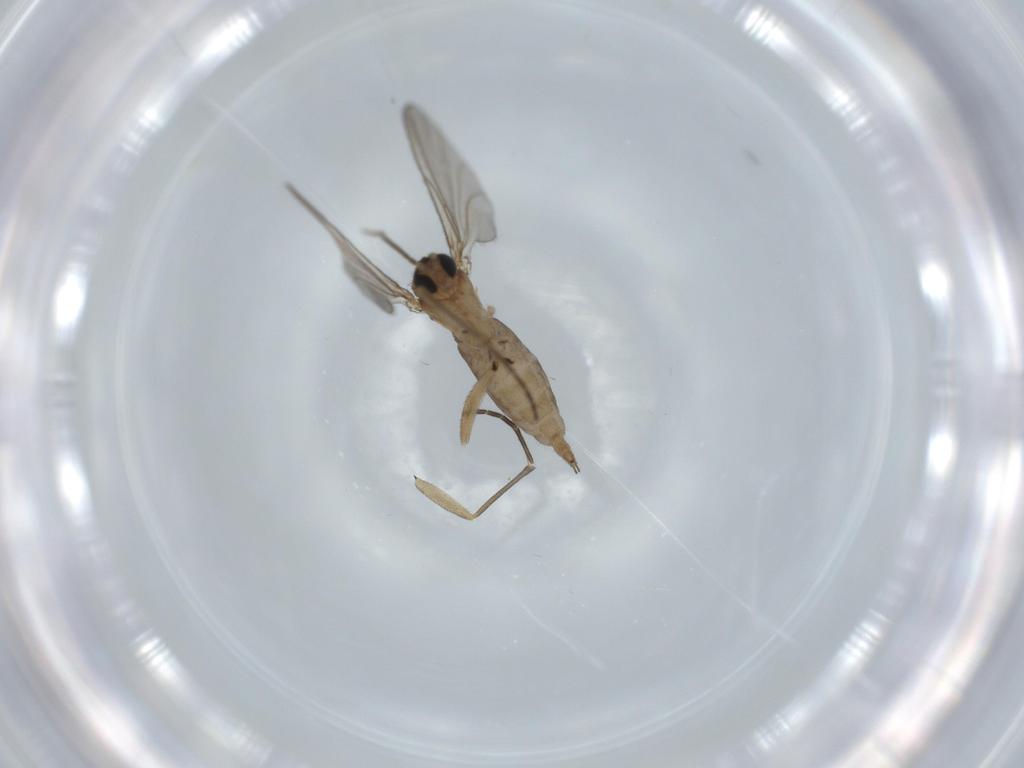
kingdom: Animalia
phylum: Arthropoda
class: Insecta
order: Diptera
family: Sciaridae
